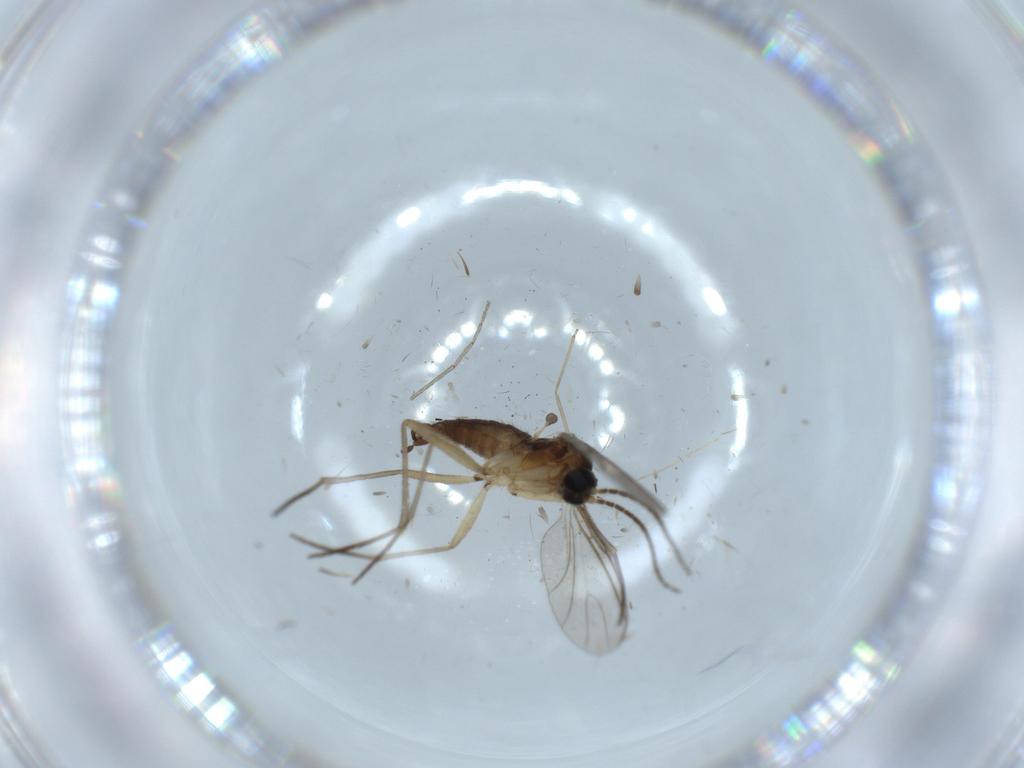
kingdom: Animalia
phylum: Arthropoda
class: Insecta
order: Diptera
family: Sciaridae
